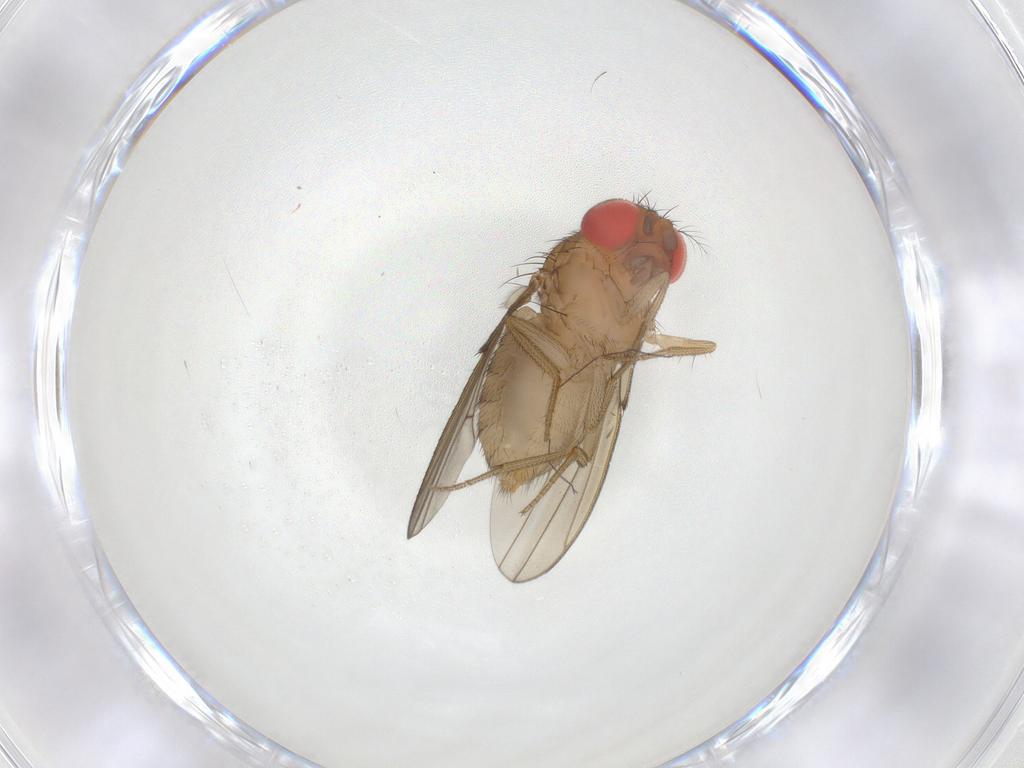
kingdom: Animalia
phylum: Arthropoda
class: Insecta
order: Diptera
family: Drosophilidae
